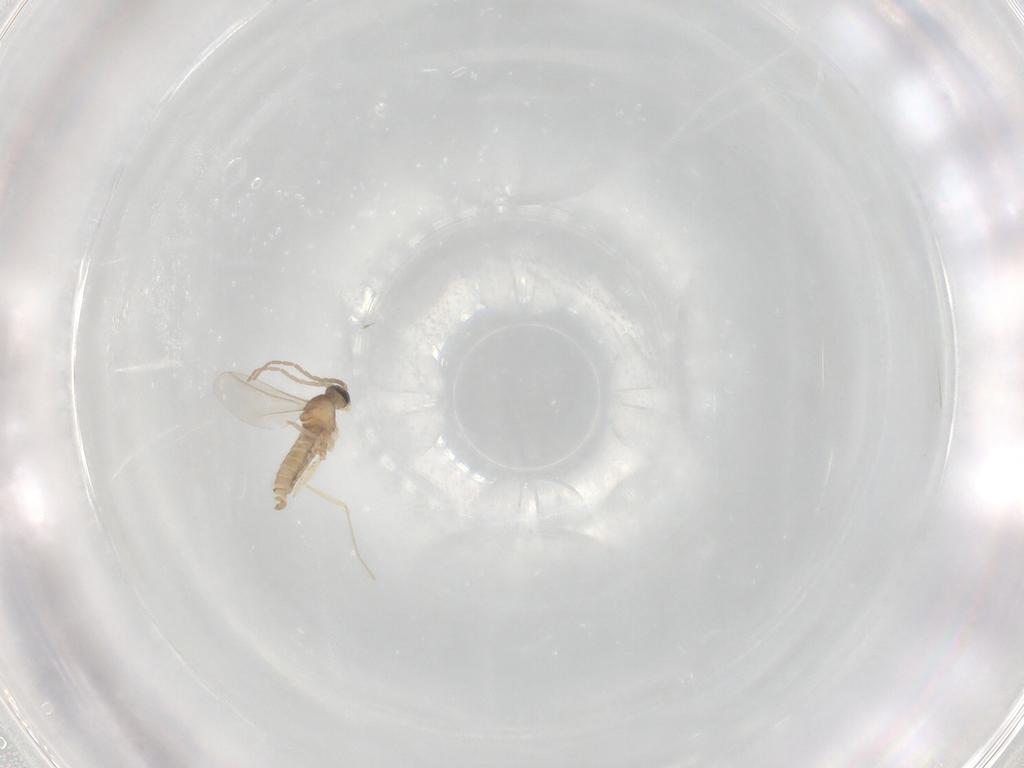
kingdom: Animalia
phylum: Arthropoda
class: Insecta
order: Diptera
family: Cecidomyiidae
